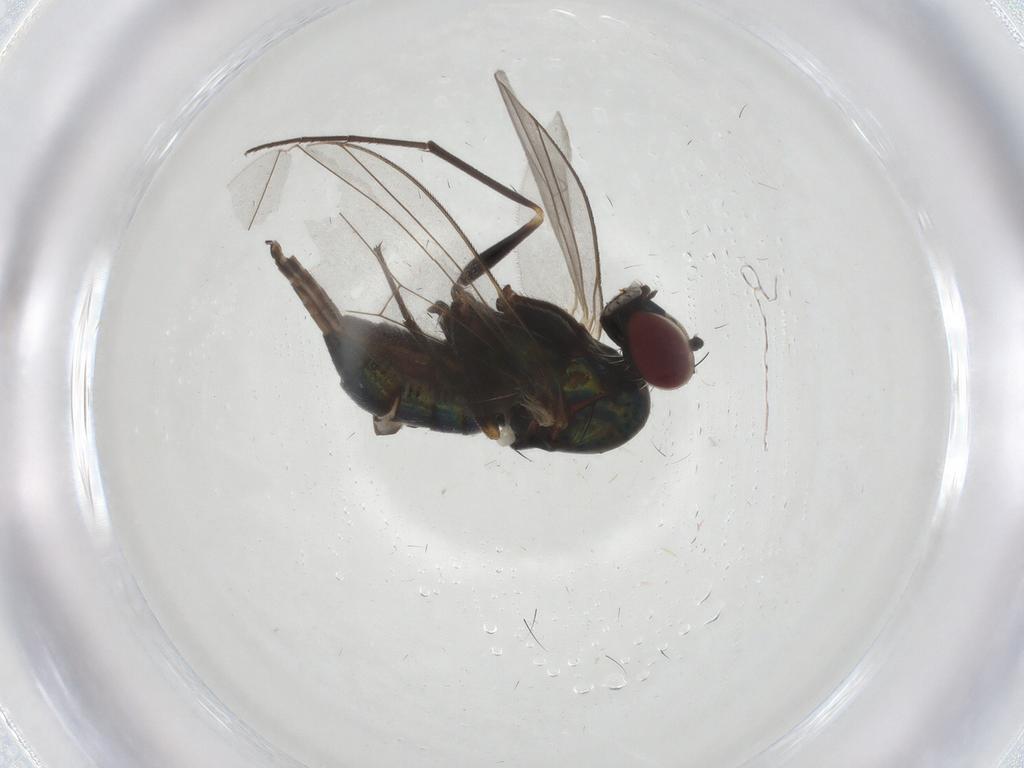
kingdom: Animalia
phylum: Arthropoda
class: Insecta
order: Diptera
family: Dolichopodidae
